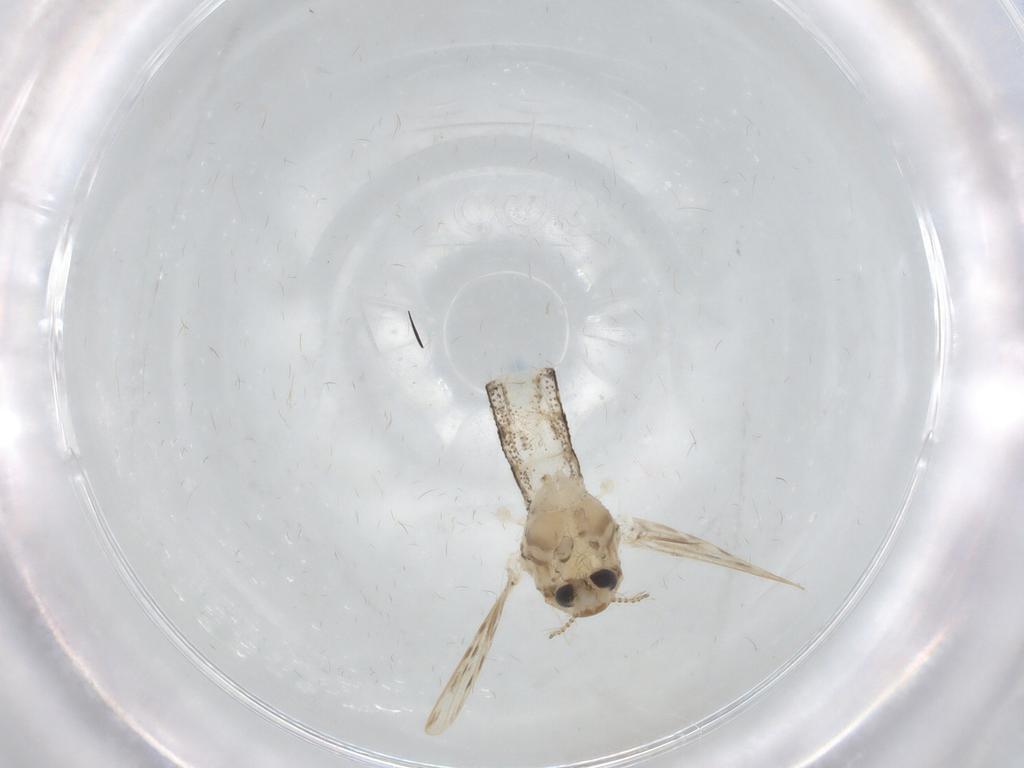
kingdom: Animalia
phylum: Arthropoda
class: Insecta
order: Diptera
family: Chaoboridae
